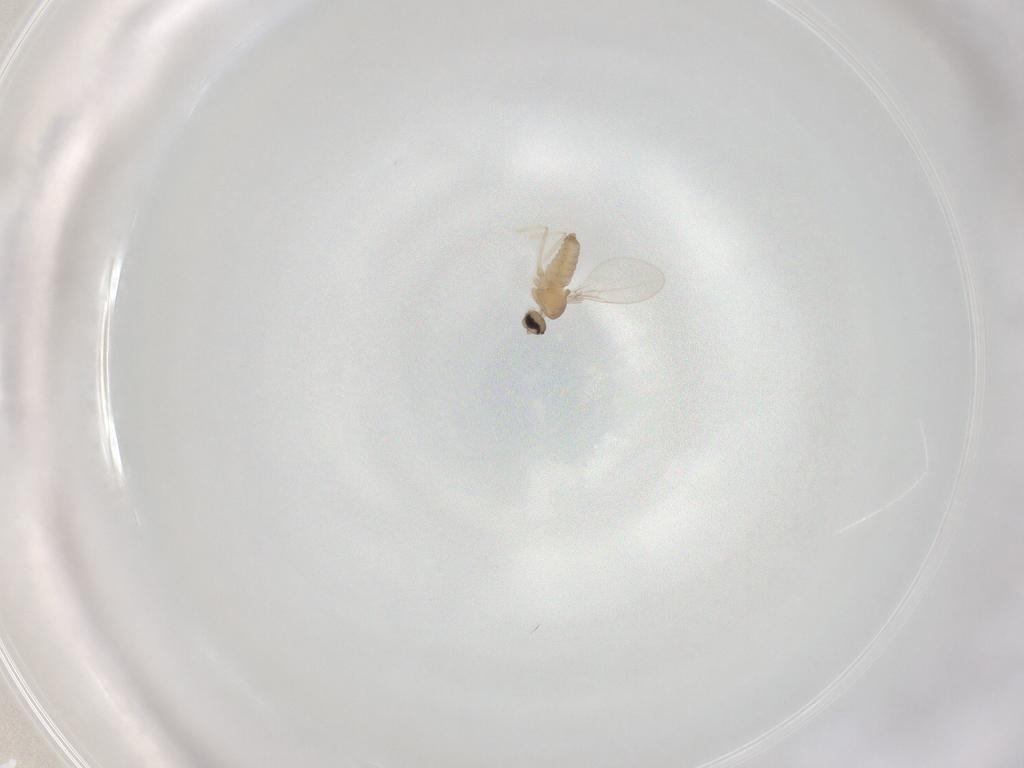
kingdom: Animalia
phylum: Arthropoda
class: Insecta
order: Diptera
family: Cecidomyiidae
